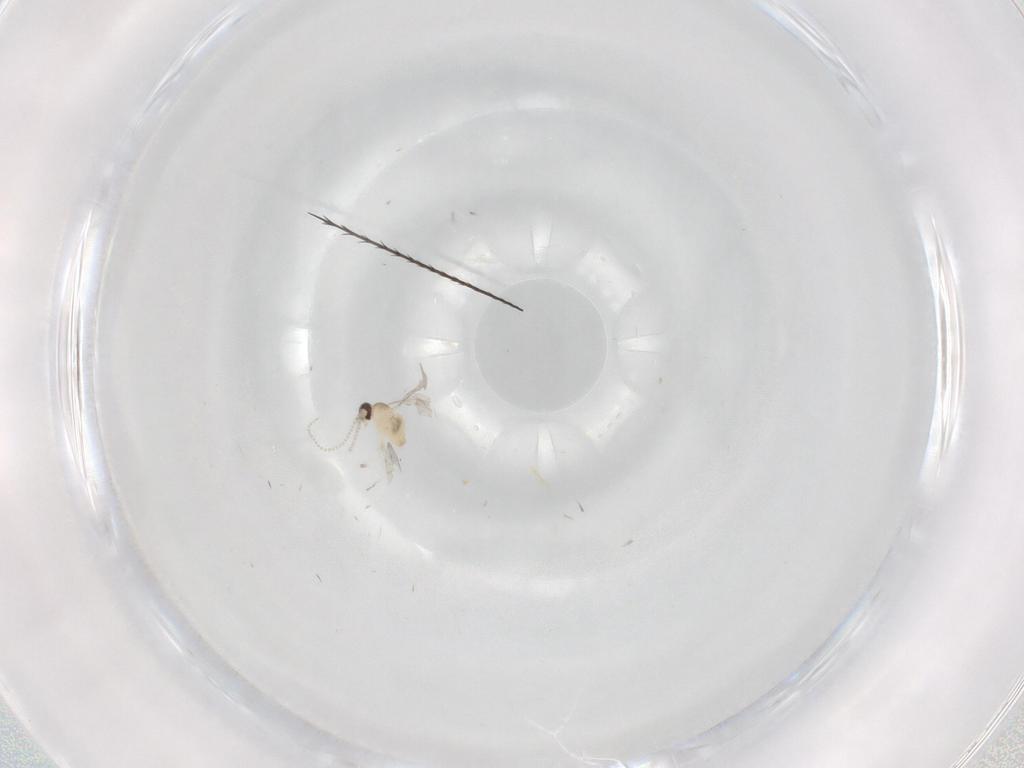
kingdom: Animalia
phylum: Arthropoda
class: Insecta
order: Diptera
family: Cecidomyiidae
